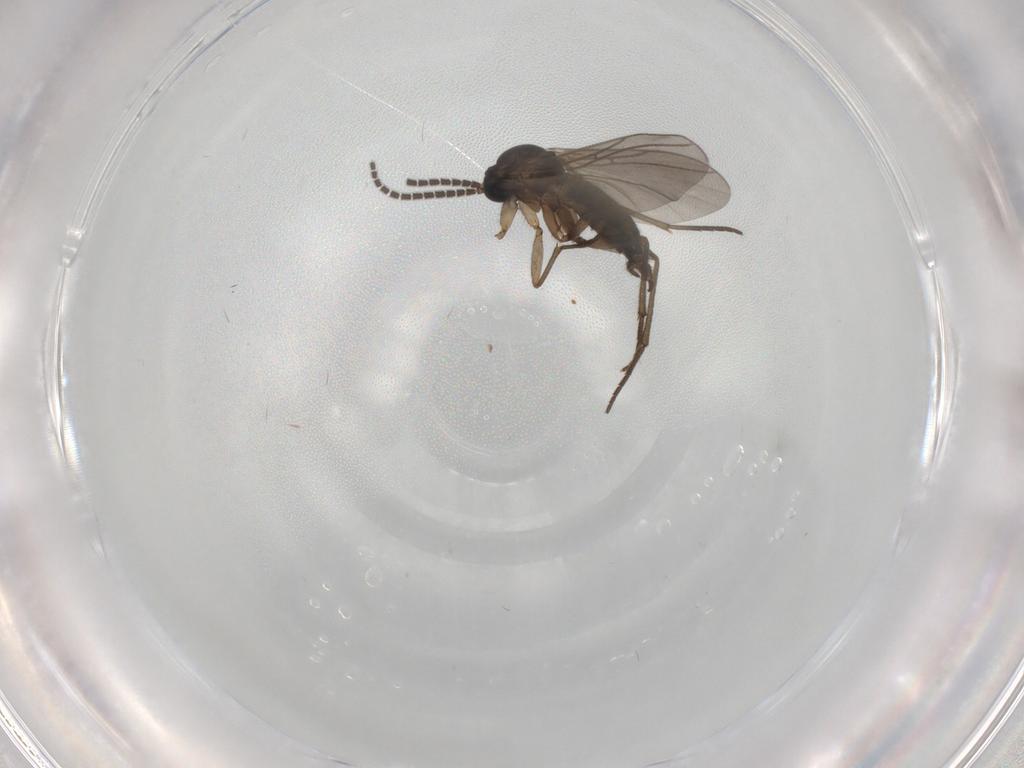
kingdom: Animalia
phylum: Arthropoda
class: Insecta
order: Diptera
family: Sciaridae
